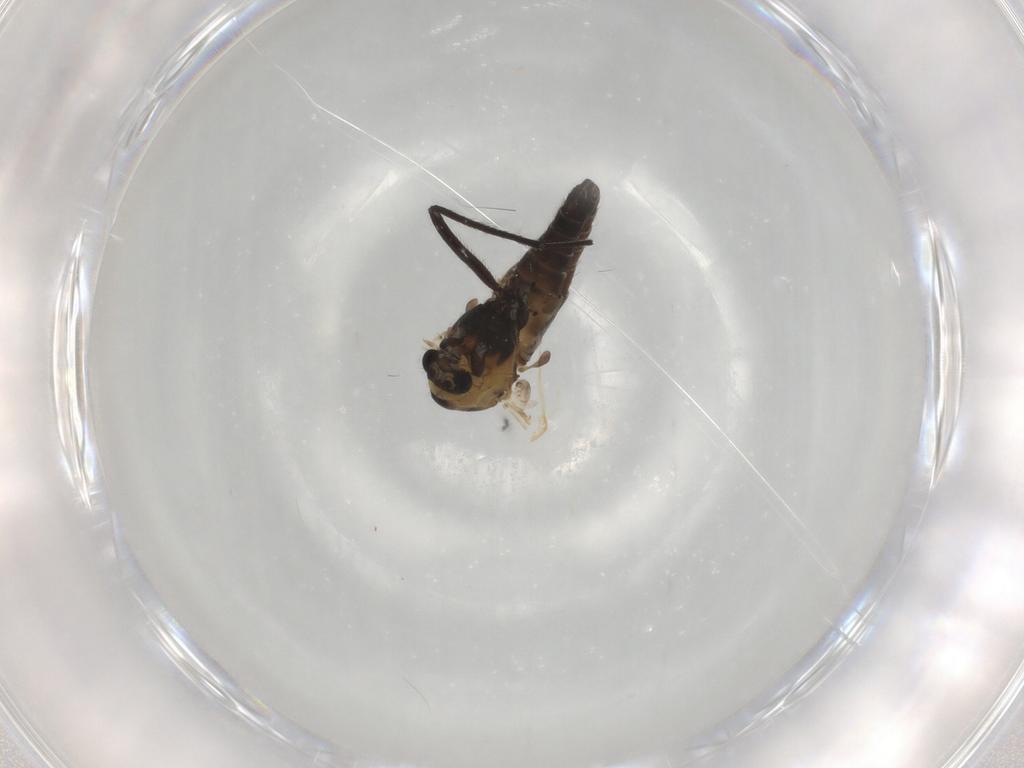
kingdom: Animalia
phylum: Arthropoda
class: Insecta
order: Diptera
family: Chironomidae
